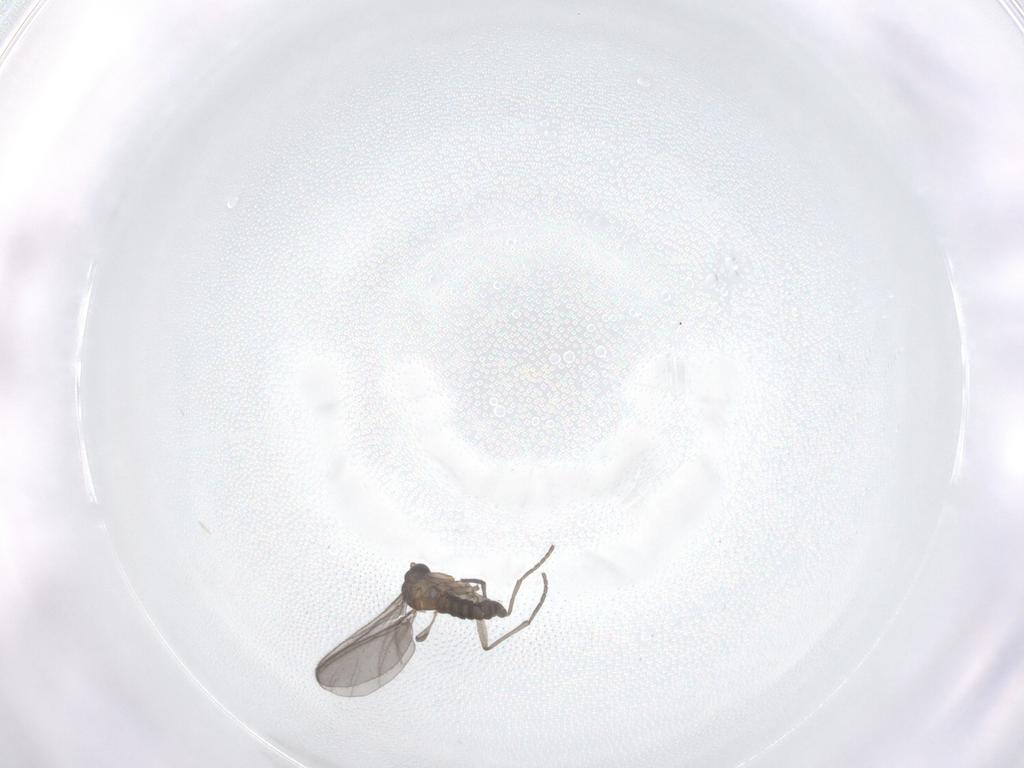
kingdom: Animalia
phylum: Arthropoda
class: Insecta
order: Diptera
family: Sciaridae
